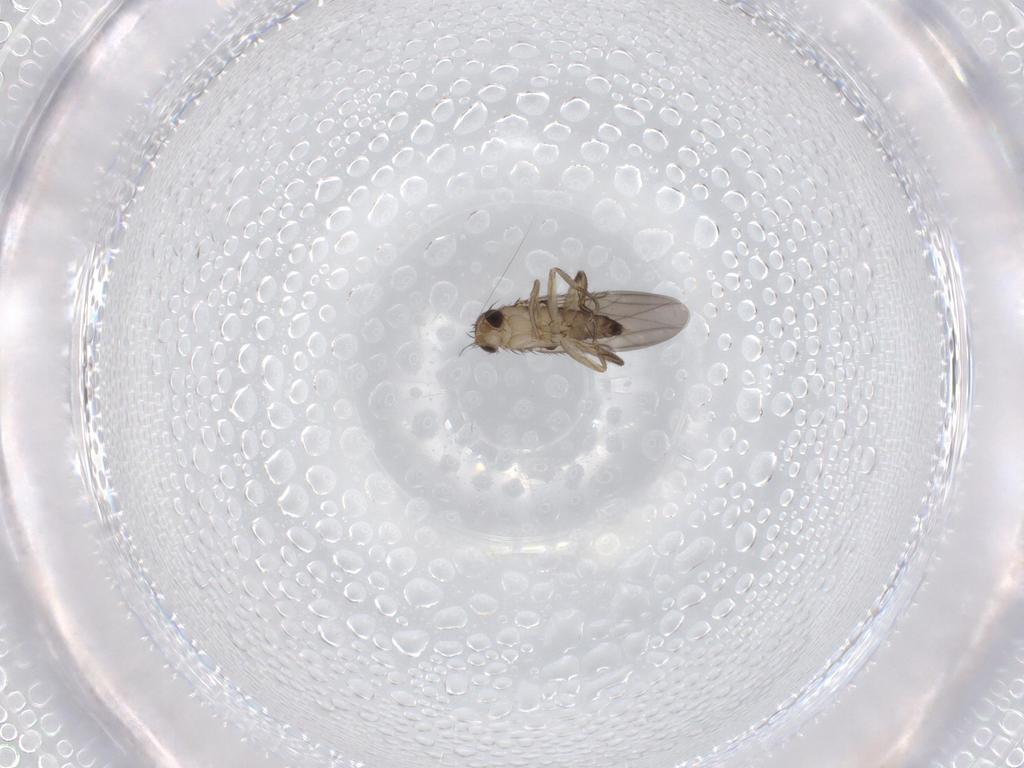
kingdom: Animalia
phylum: Arthropoda
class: Insecta
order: Diptera
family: Phoridae
